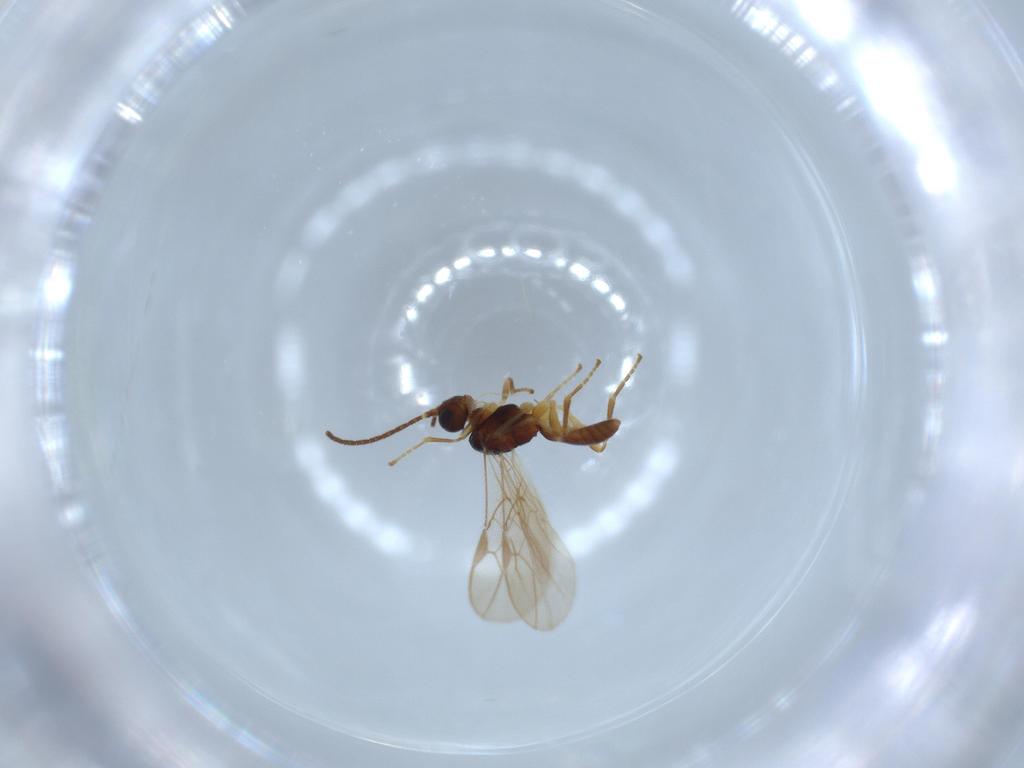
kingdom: Animalia
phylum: Arthropoda
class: Insecta
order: Hymenoptera
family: Braconidae
